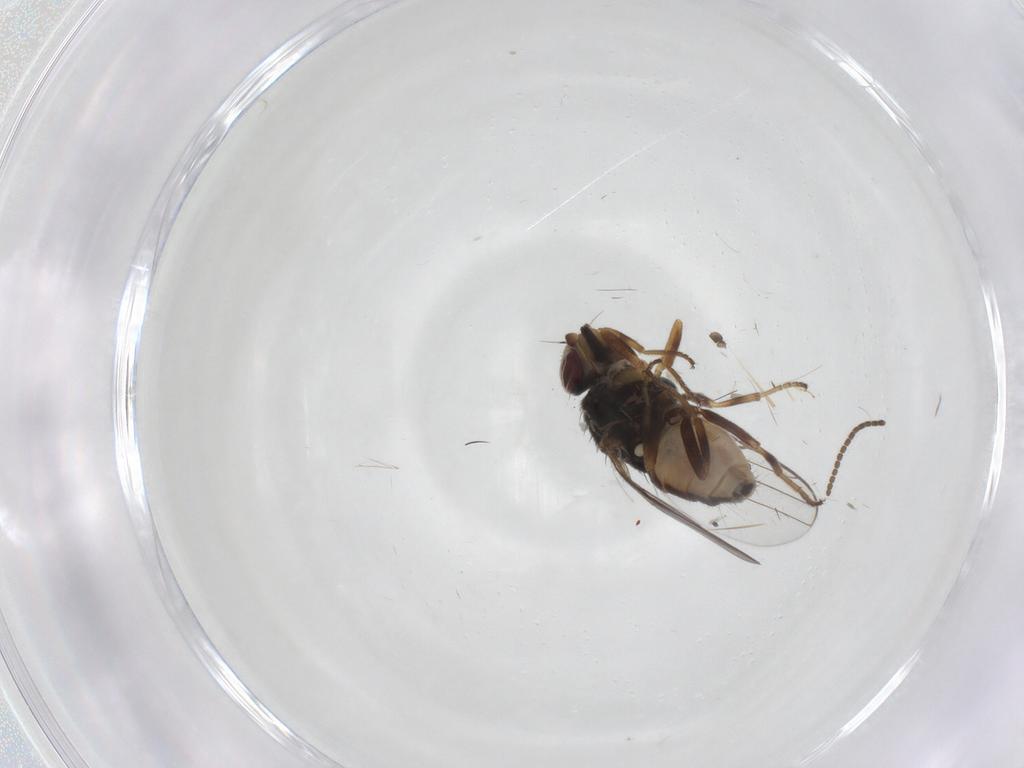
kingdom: Animalia
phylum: Arthropoda
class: Insecta
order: Diptera
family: Chloropidae
